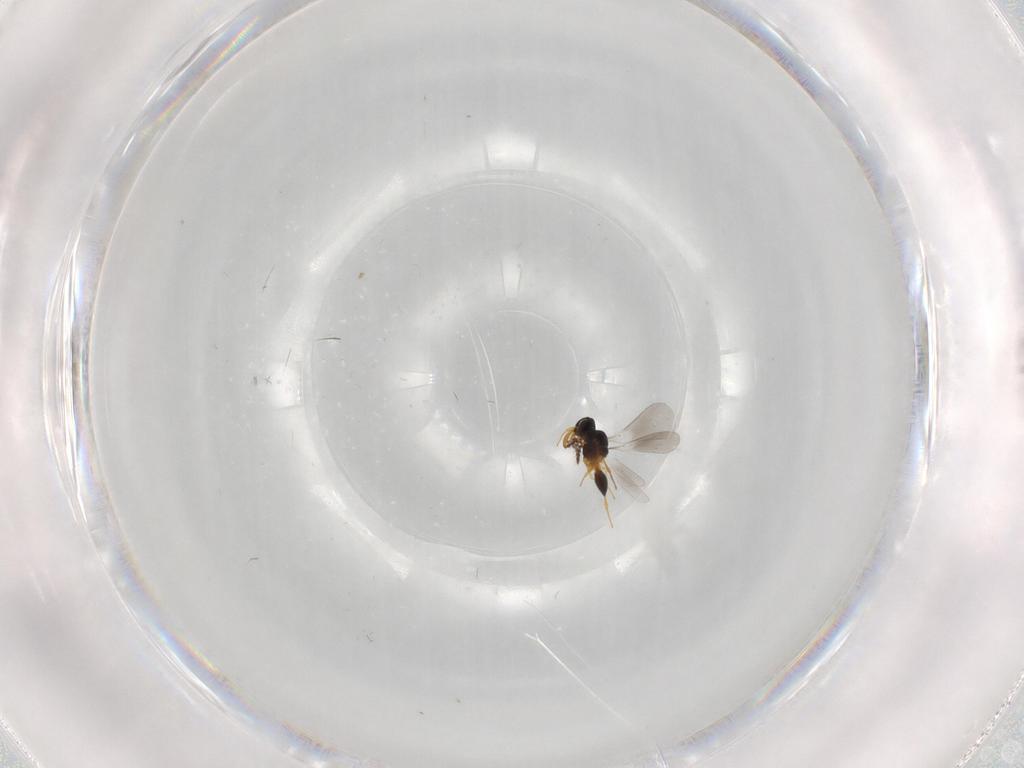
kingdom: Animalia
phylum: Arthropoda
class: Insecta
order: Hymenoptera
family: Platygastridae
